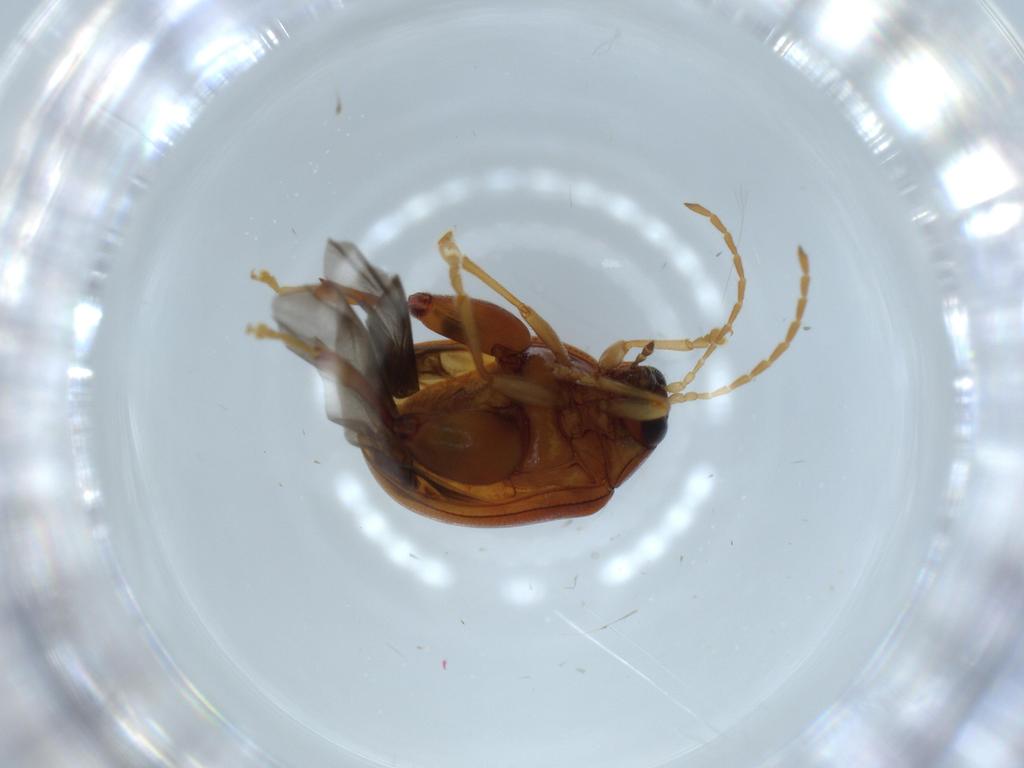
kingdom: Animalia
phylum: Arthropoda
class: Insecta
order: Coleoptera
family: Chrysomelidae
